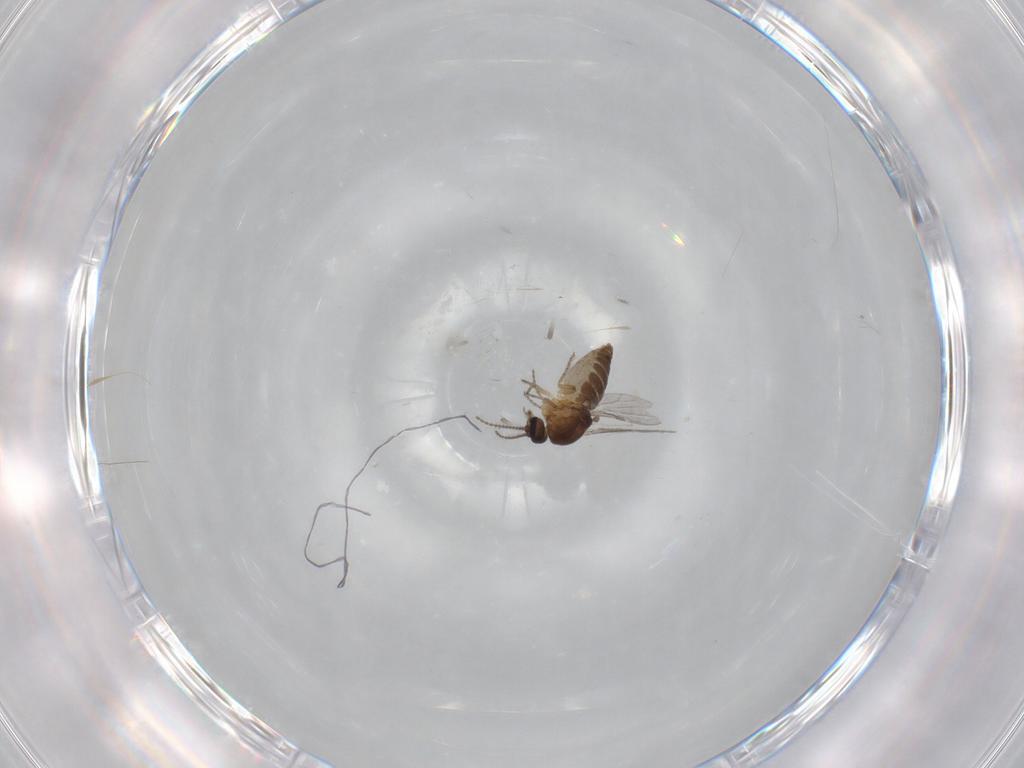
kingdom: Animalia
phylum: Arthropoda
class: Insecta
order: Diptera
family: Ceratopogonidae
